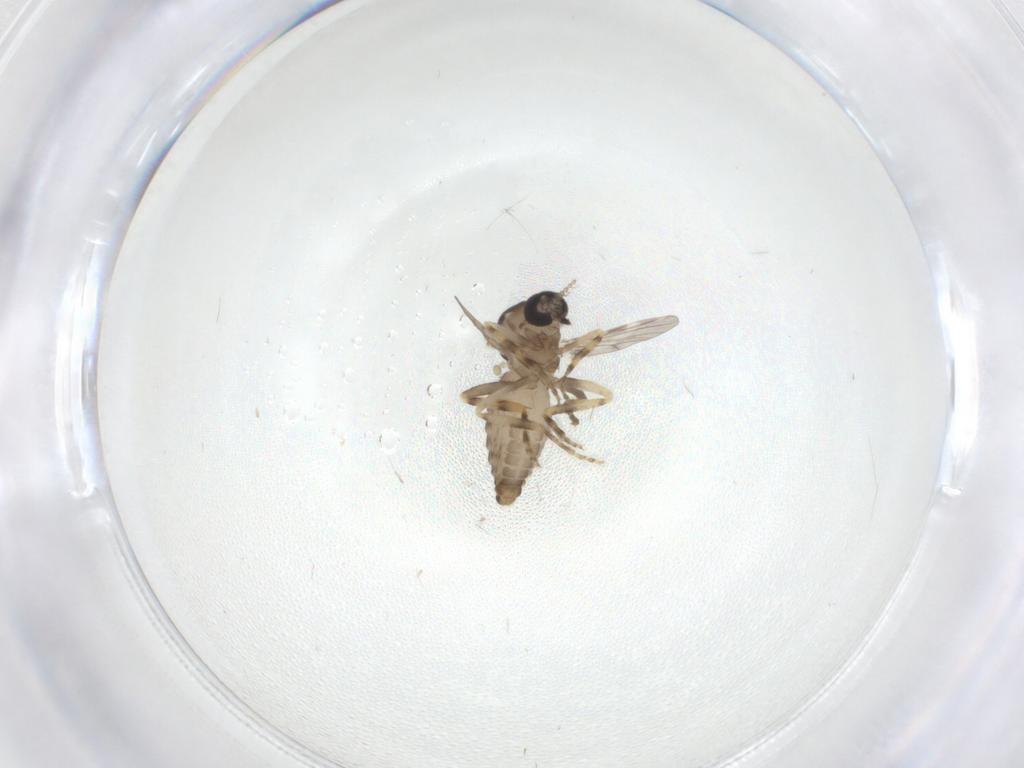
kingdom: Animalia
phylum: Arthropoda
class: Insecta
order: Diptera
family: Ceratopogonidae
